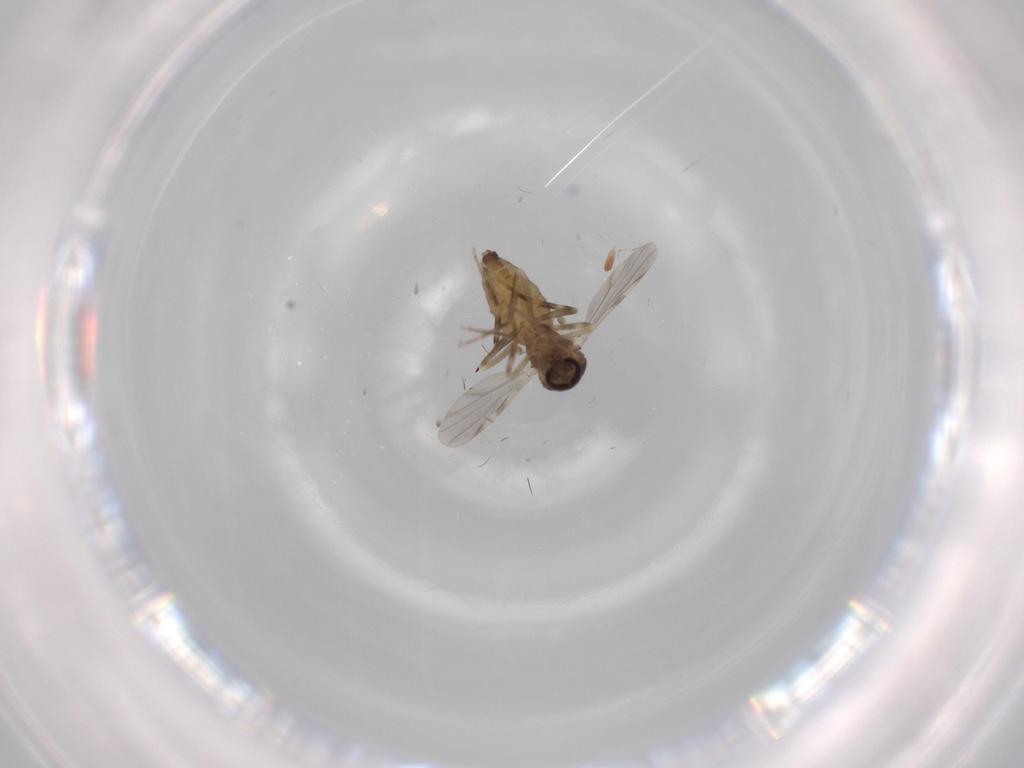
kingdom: Animalia
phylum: Arthropoda
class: Insecta
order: Diptera
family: Ceratopogonidae
